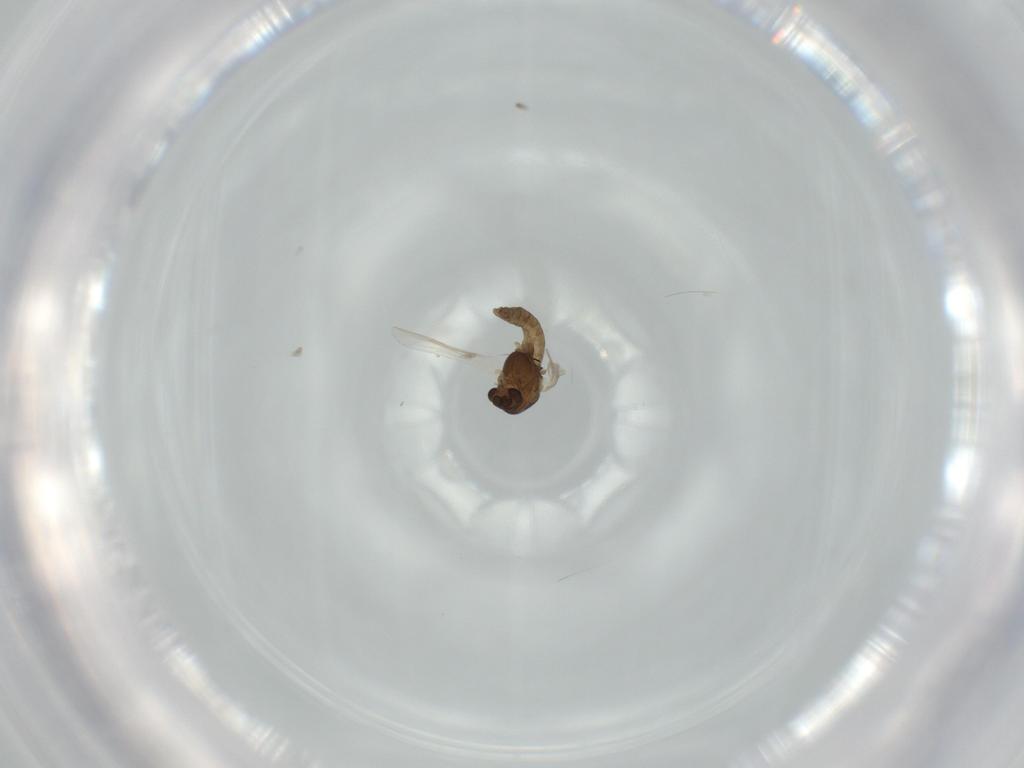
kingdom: Animalia
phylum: Arthropoda
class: Insecta
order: Diptera
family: Chironomidae
